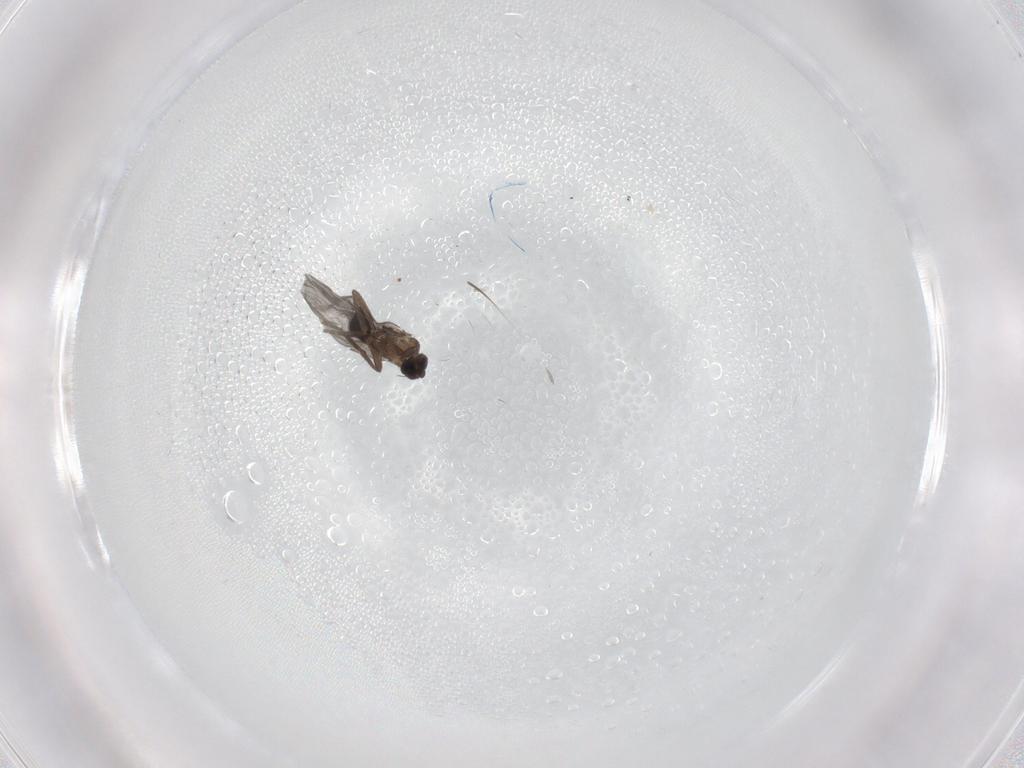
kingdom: Animalia
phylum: Arthropoda
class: Insecta
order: Diptera
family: Phoridae
